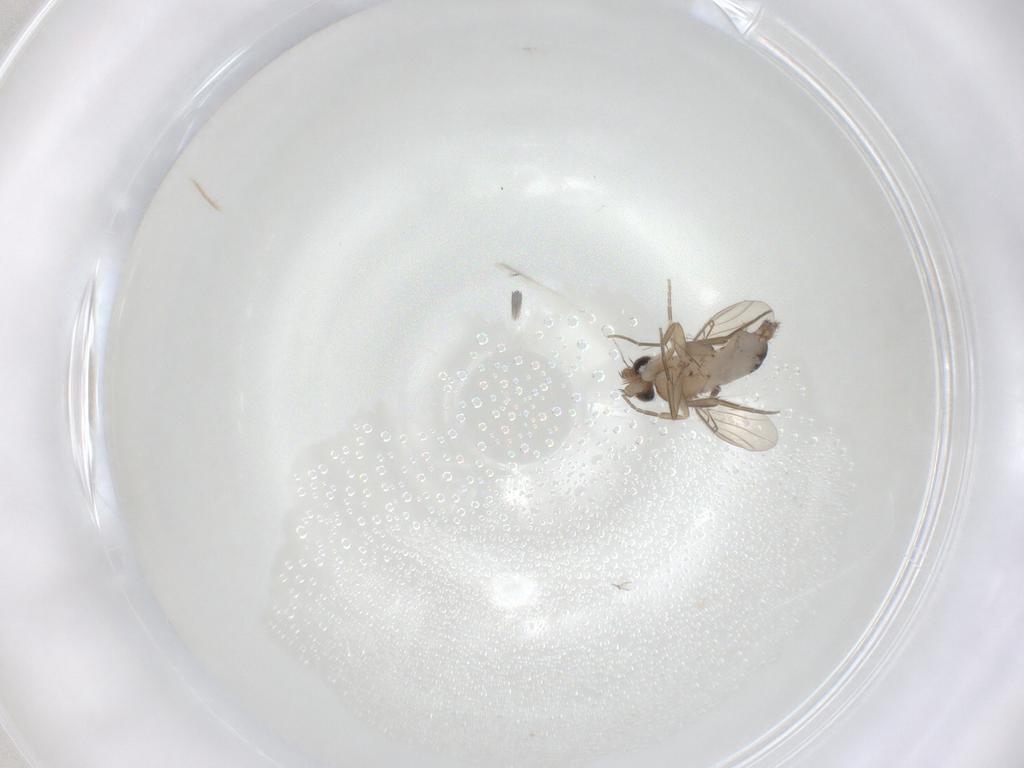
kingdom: Animalia
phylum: Arthropoda
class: Insecta
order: Diptera
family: Phoridae
